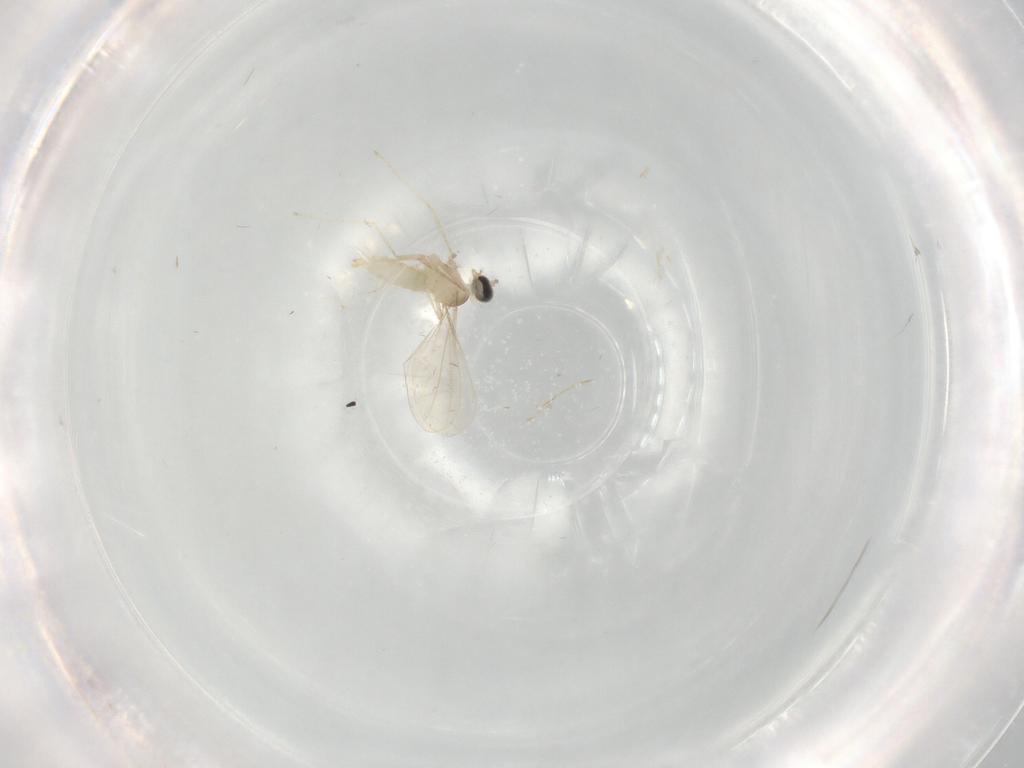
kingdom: Animalia
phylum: Arthropoda
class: Insecta
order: Diptera
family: Cecidomyiidae
